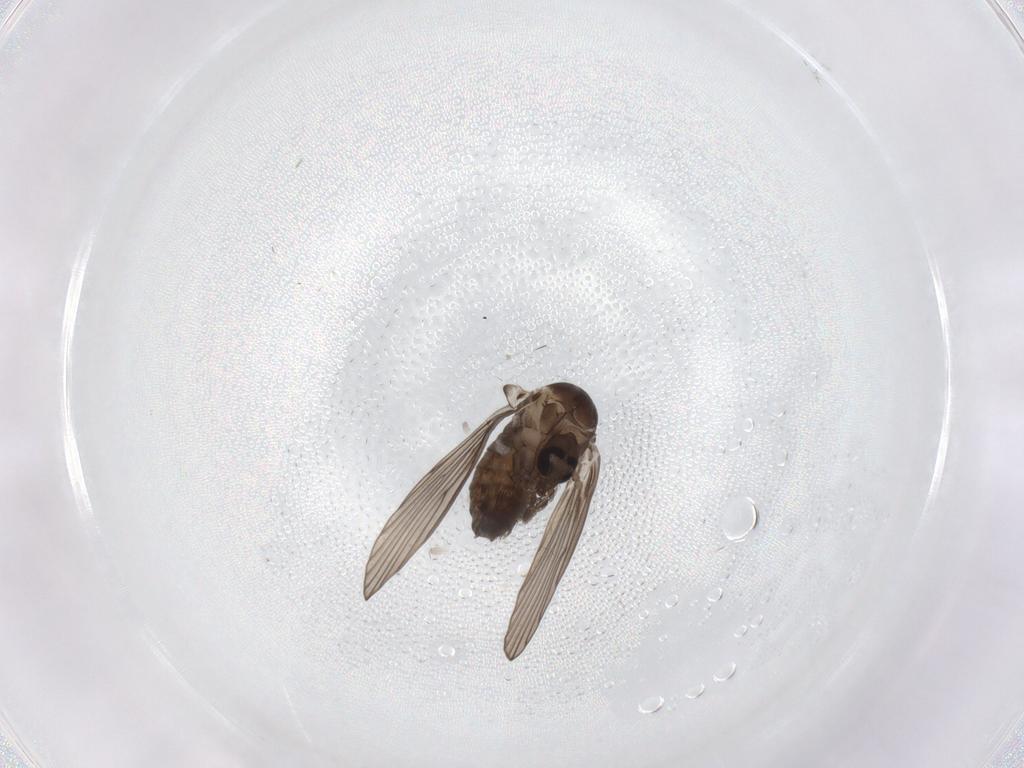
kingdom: Animalia
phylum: Arthropoda
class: Insecta
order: Diptera
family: Psychodidae
